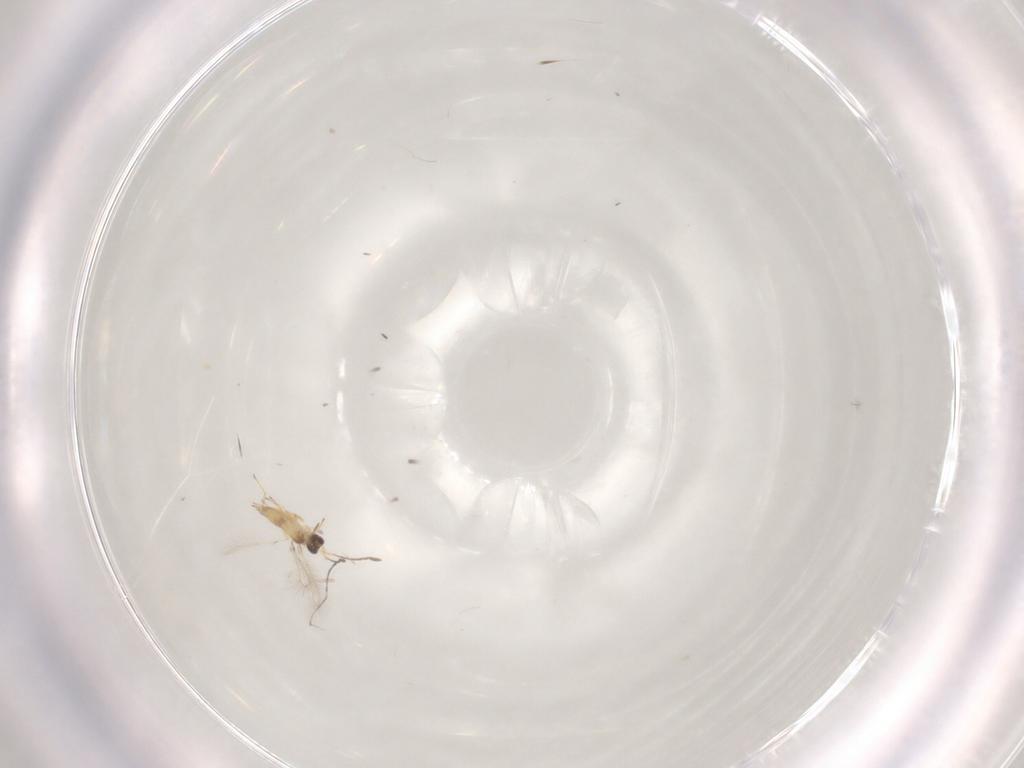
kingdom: Animalia
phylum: Arthropoda
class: Insecta
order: Hymenoptera
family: Mymaridae
